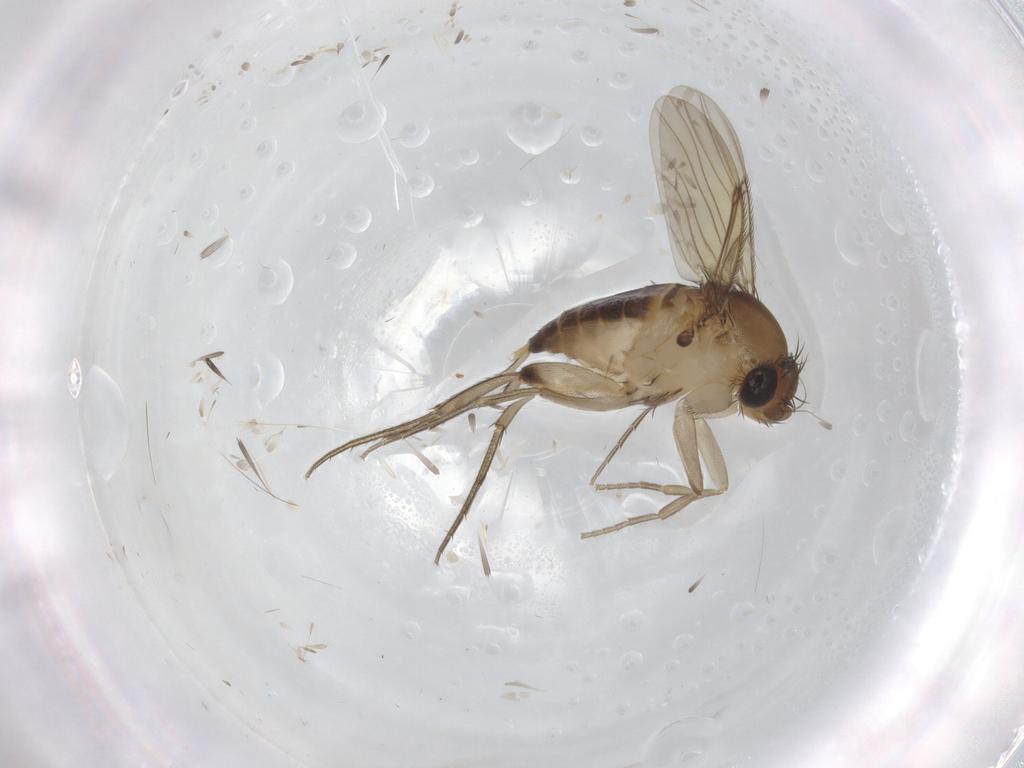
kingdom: Animalia
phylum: Arthropoda
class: Insecta
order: Diptera
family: Phoridae
